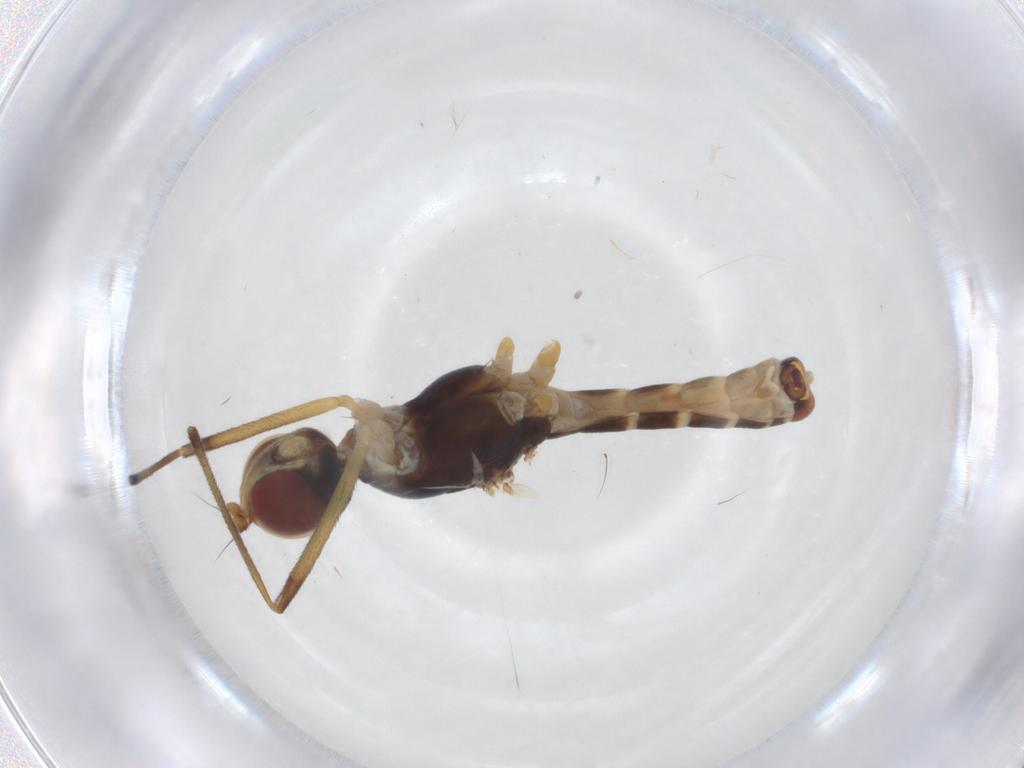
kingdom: Animalia
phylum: Arthropoda
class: Insecta
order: Diptera
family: Micropezidae
